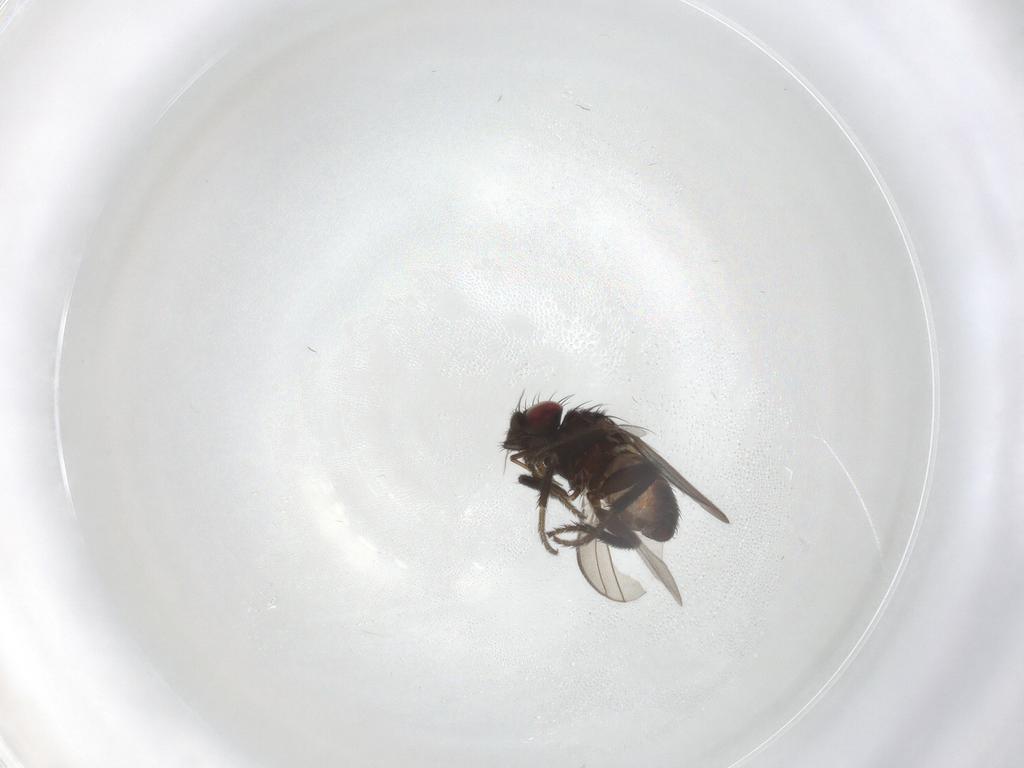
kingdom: Animalia
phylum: Arthropoda
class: Insecta
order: Diptera
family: Milichiidae
